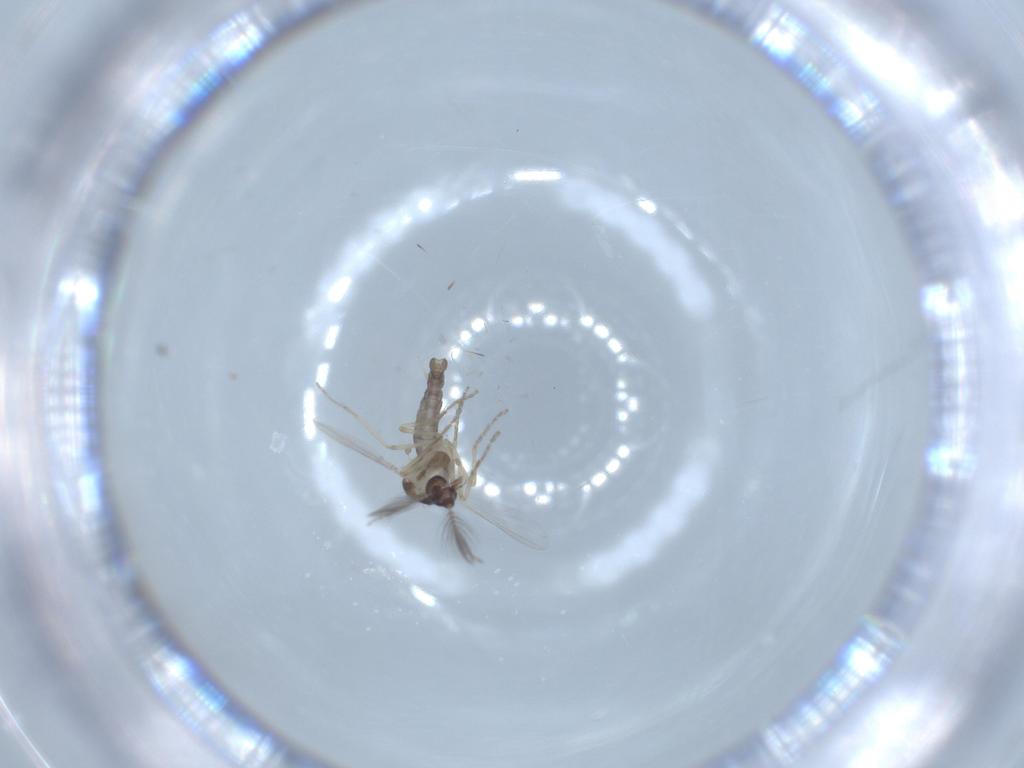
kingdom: Animalia
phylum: Arthropoda
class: Insecta
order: Diptera
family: Ceratopogonidae
